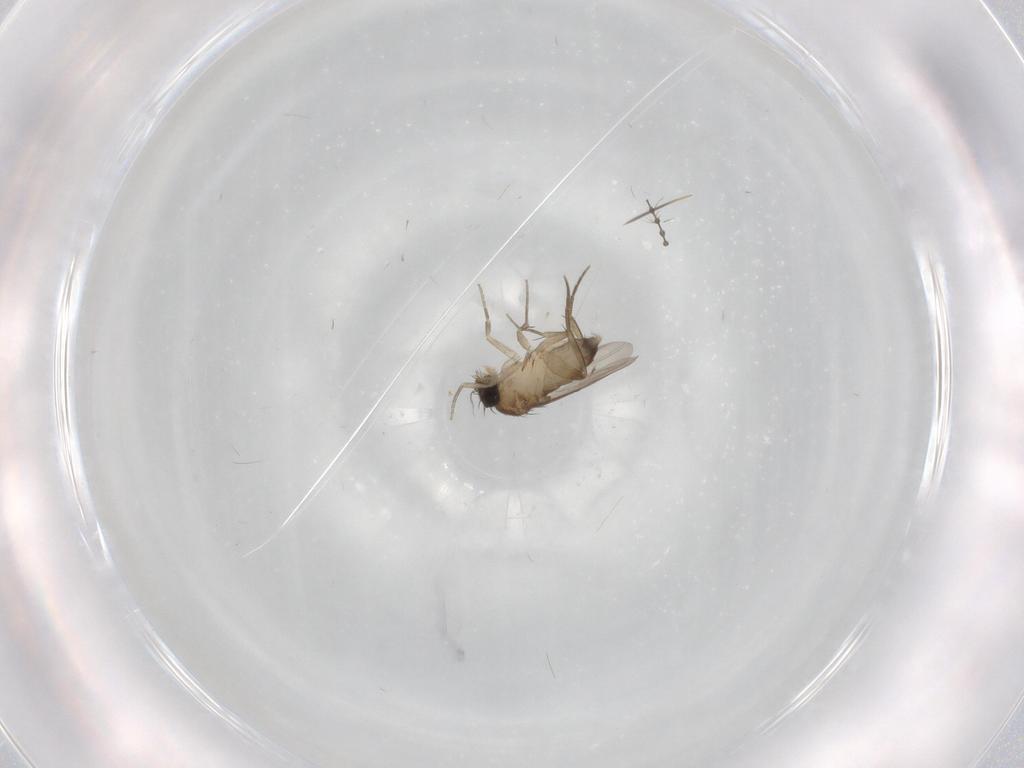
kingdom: Animalia
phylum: Arthropoda
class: Insecta
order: Diptera
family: Phoridae
